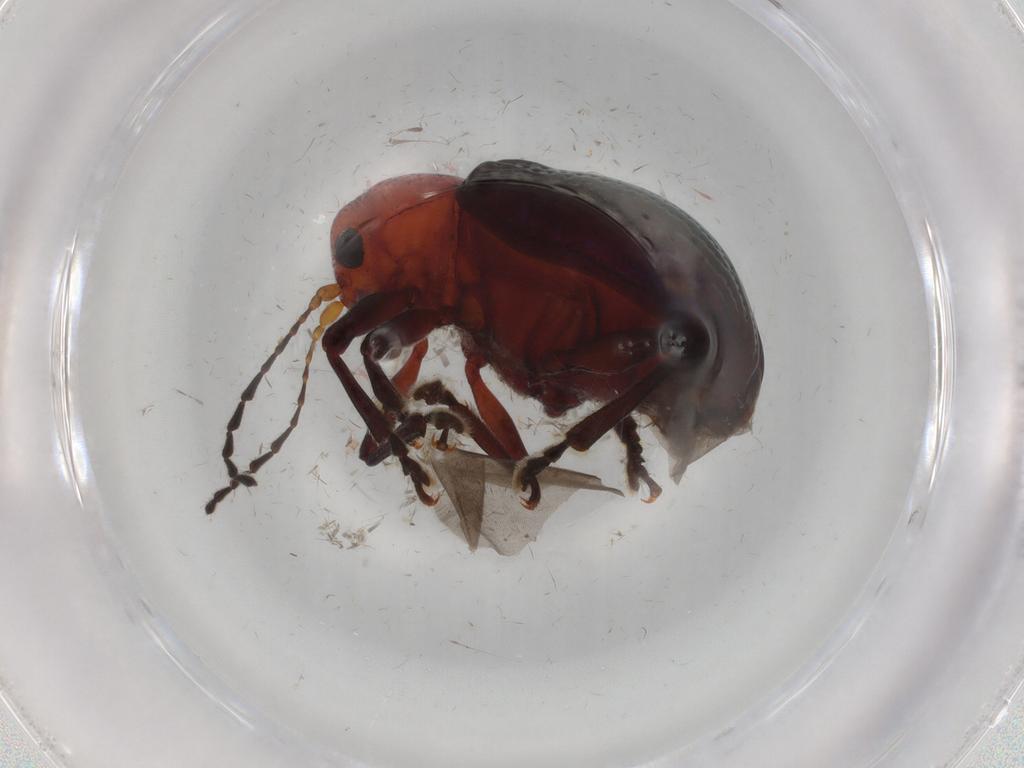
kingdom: Animalia
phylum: Arthropoda
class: Insecta
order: Coleoptera
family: Chrysomelidae
